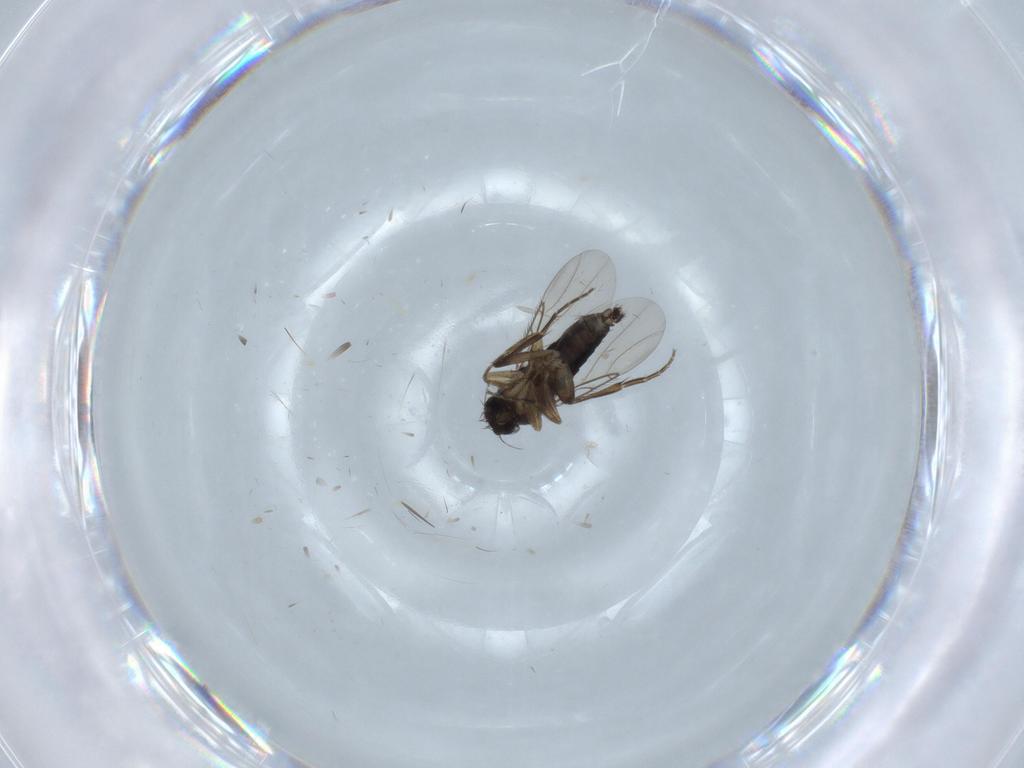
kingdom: Animalia
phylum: Arthropoda
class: Insecta
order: Diptera
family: Phoridae
